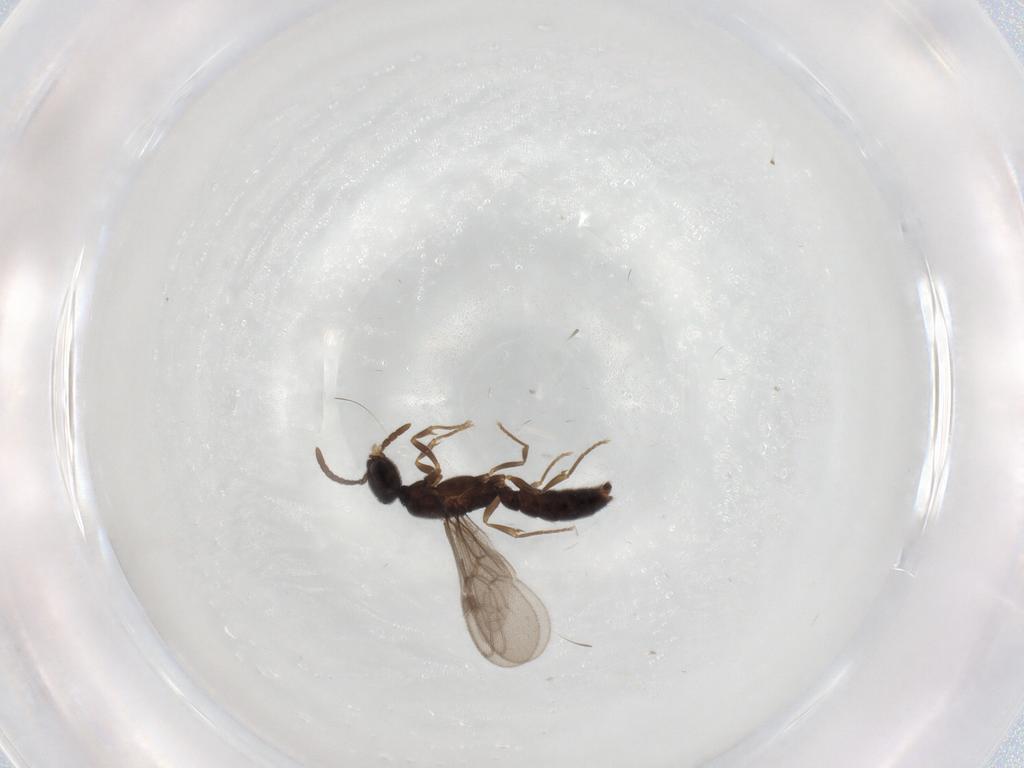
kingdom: Animalia
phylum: Arthropoda
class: Insecta
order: Hymenoptera
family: Formicidae
